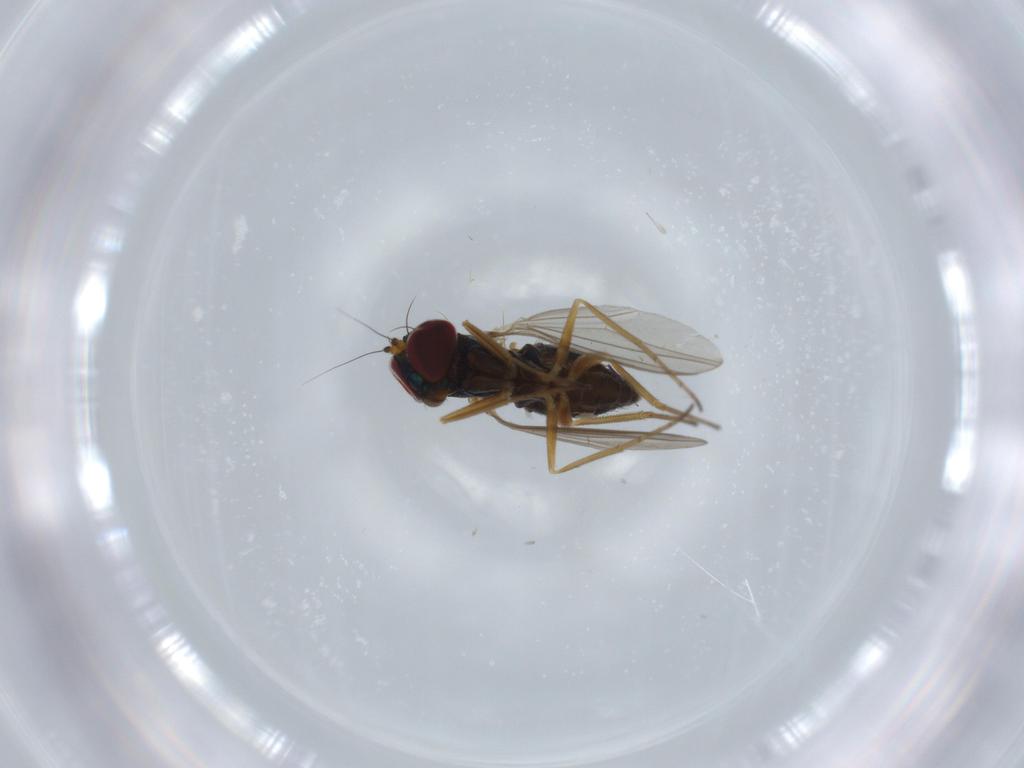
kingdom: Animalia
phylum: Arthropoda
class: Insecta
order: Diptera
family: Dolichopodidae
